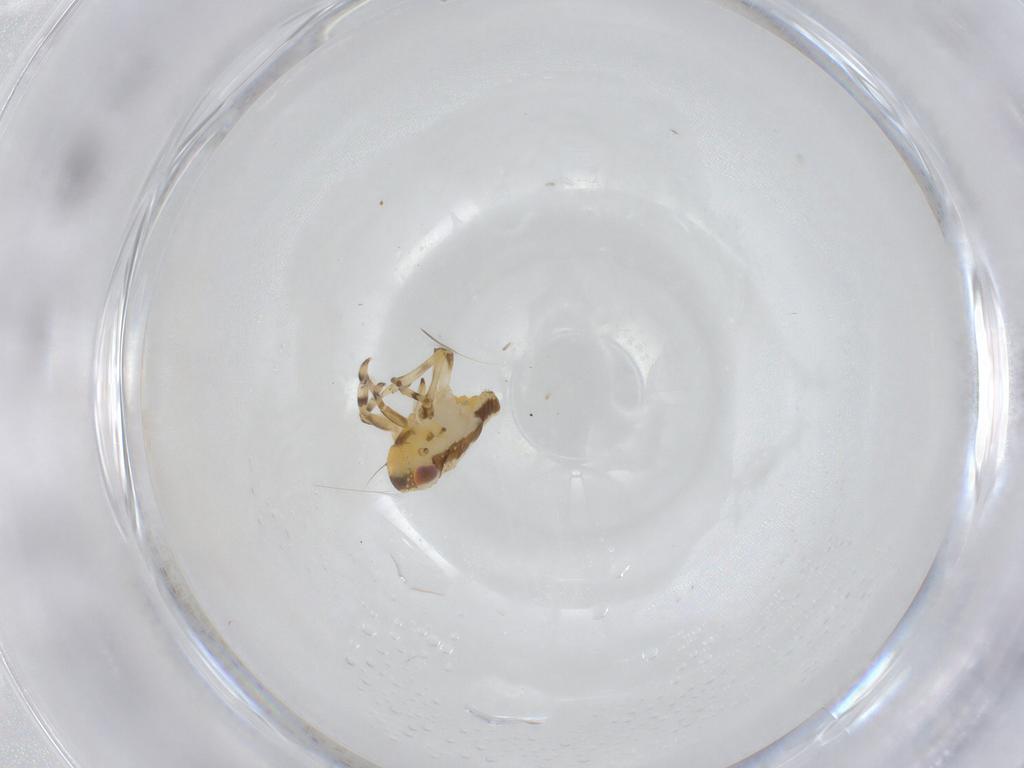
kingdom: Animalia
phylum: Arthropoda
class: Insecta
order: Hemiptera
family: Issidae
